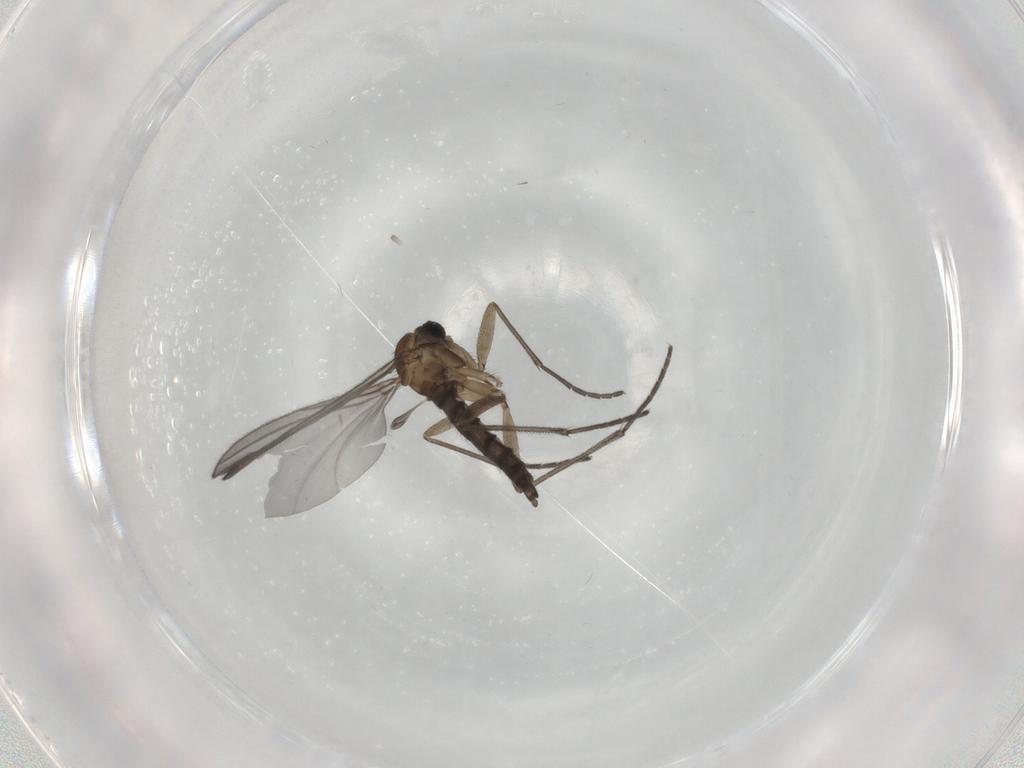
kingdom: Animalia
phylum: Arthropoda
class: Insecta
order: Diptera
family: Sciaridae
